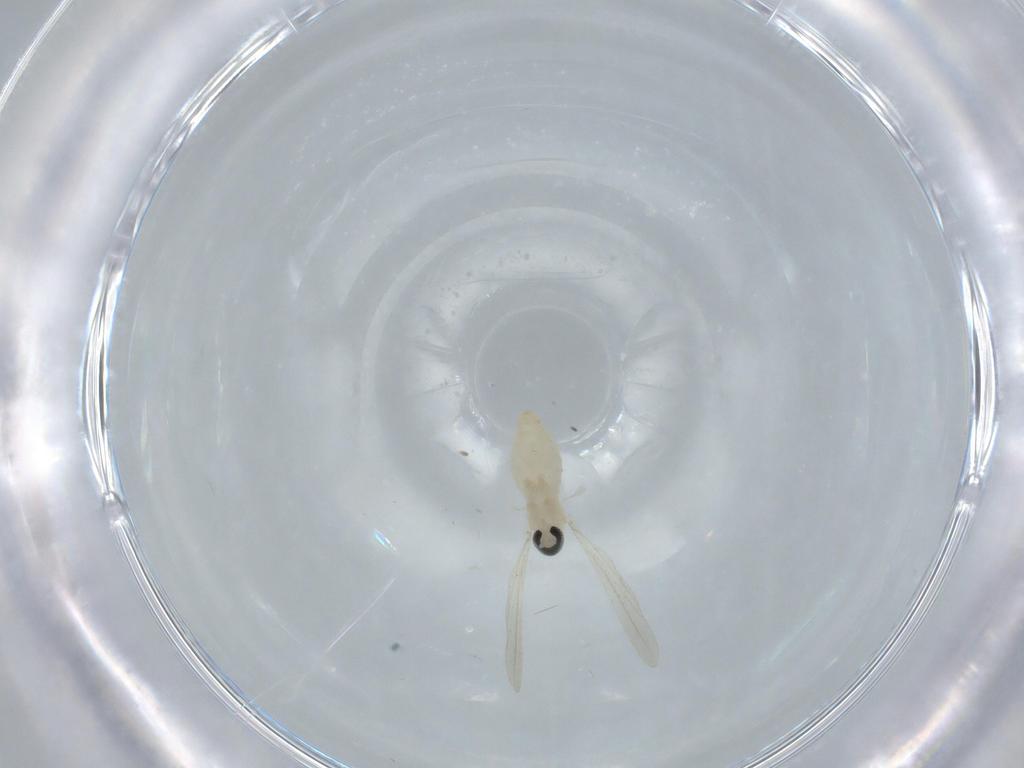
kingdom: Animalia
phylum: Arthropoda
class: Insecta
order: Diptera
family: Cecidomyiidae
